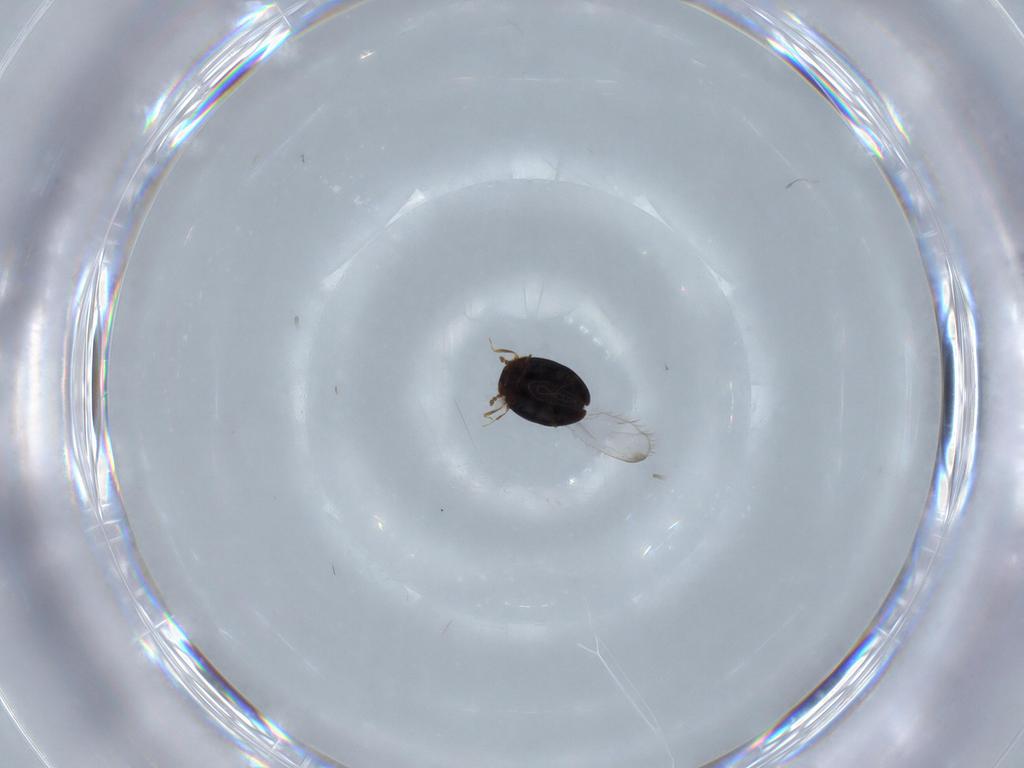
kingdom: Animalia
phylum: Arthropoda
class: Insecta
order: Coleoptera
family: Corylophidae
